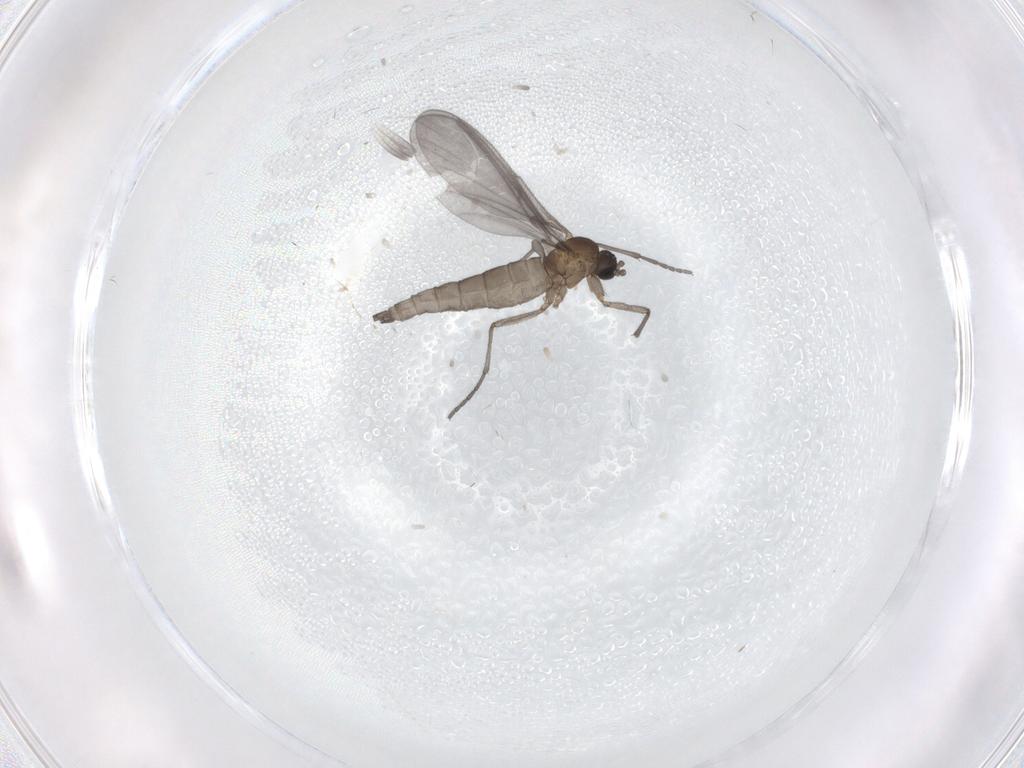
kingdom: Animalia
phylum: Arthropoda
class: Insecta
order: Diptera
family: Sciaridae
